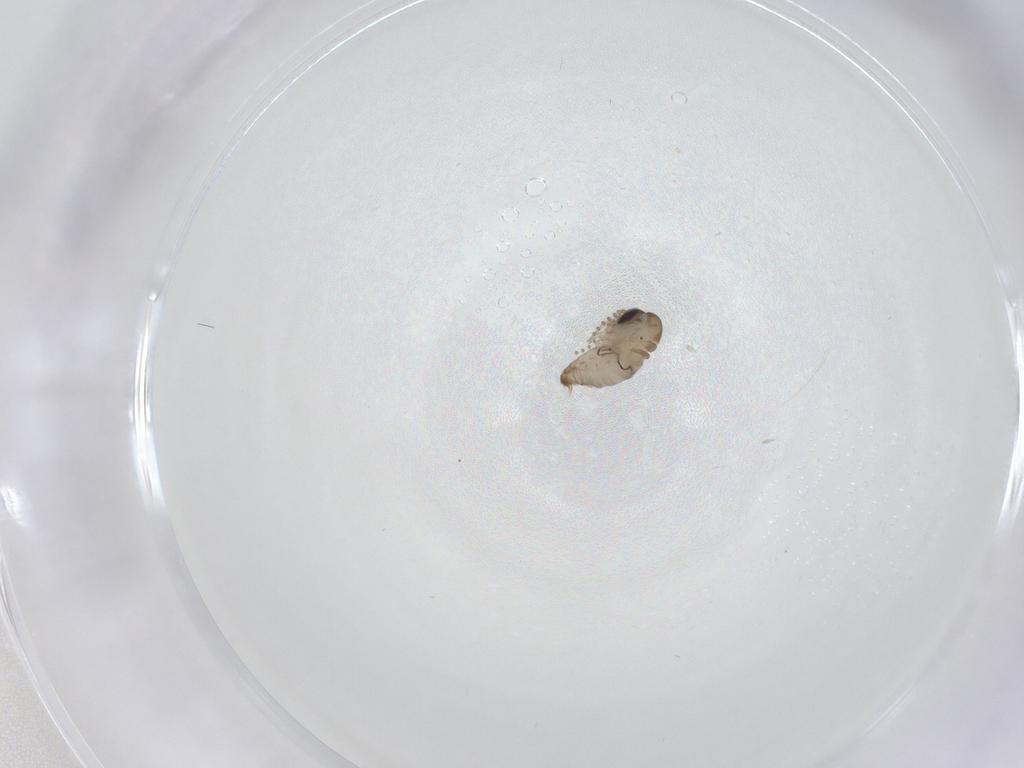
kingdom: Animalia
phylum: Arthropoda
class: Insecta
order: Diptera
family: Psychodidae
